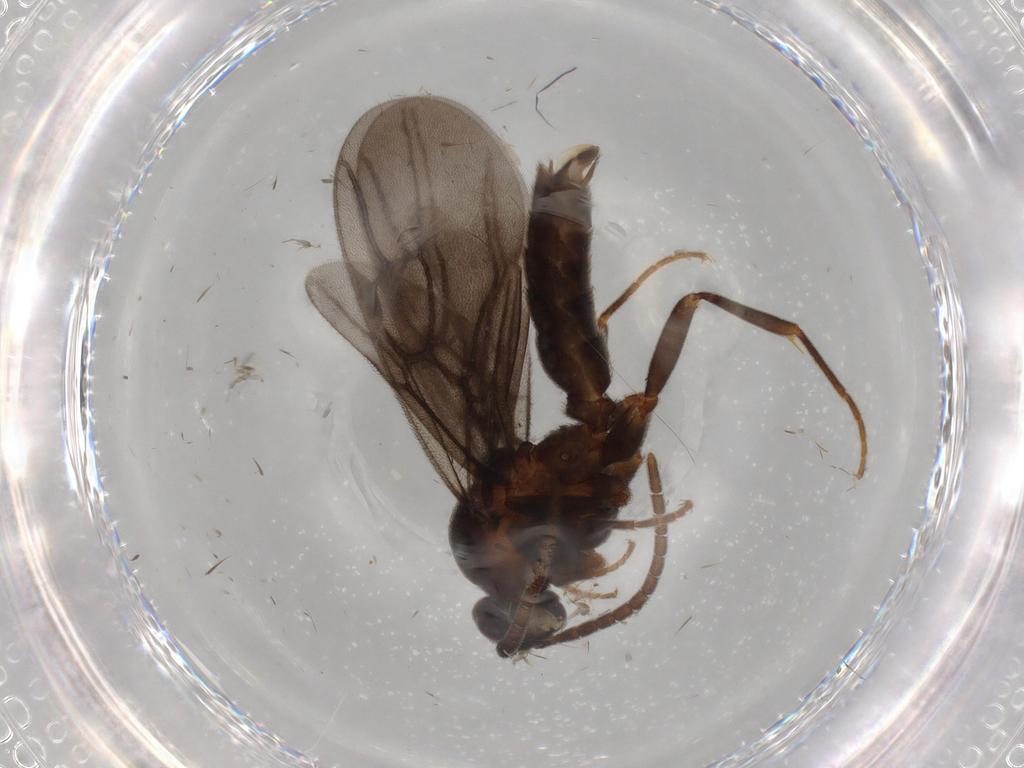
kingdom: Animalia
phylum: Arthropoda
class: Insecta
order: Hymenoptera
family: Formicidae
